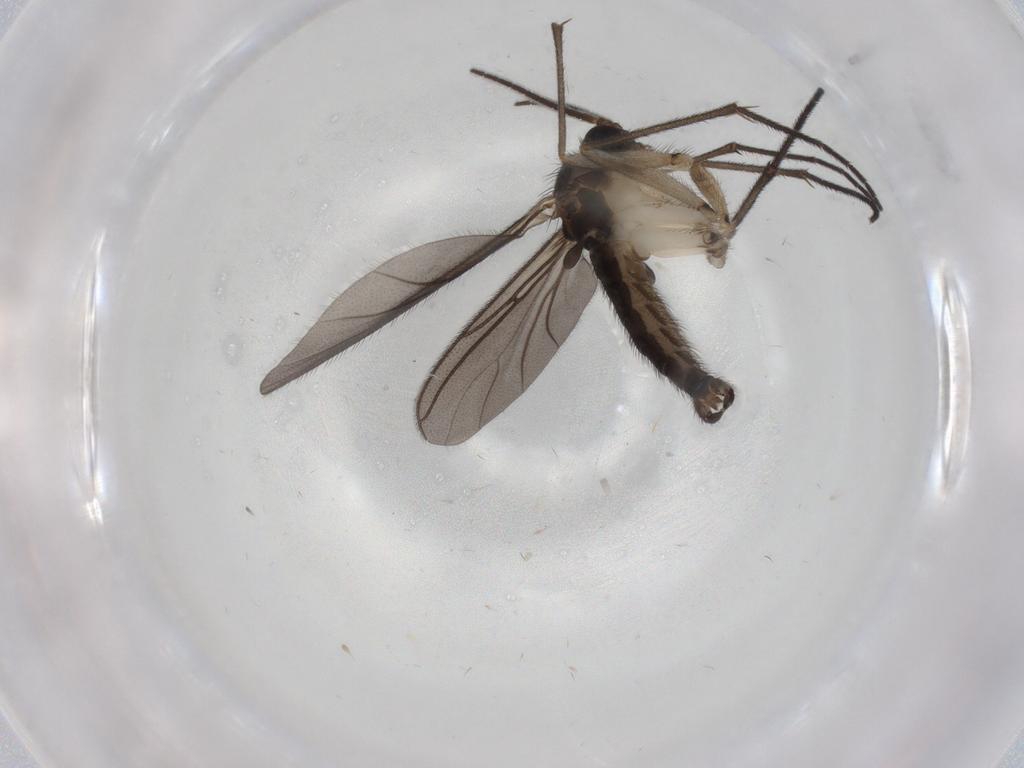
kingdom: Animalia
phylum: Arthropoda
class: Insecta
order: Diptera
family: Sciaridae
